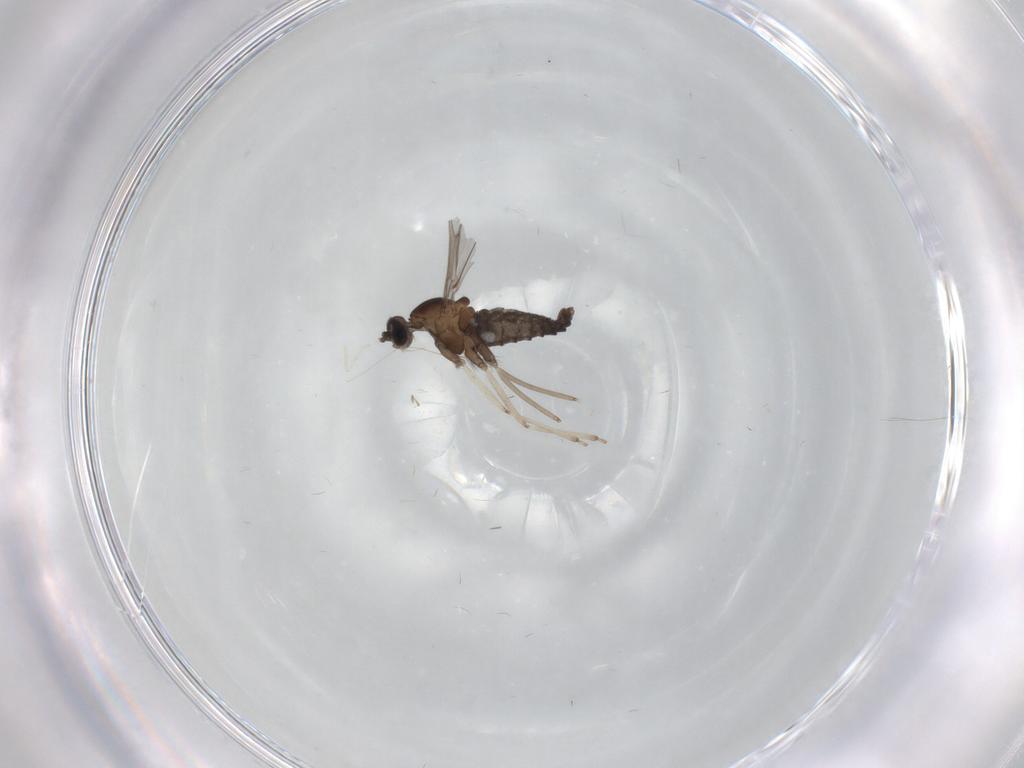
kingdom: Animalia
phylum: Arthropoda
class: Insecta
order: Diptera
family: Cecidomyiidae
